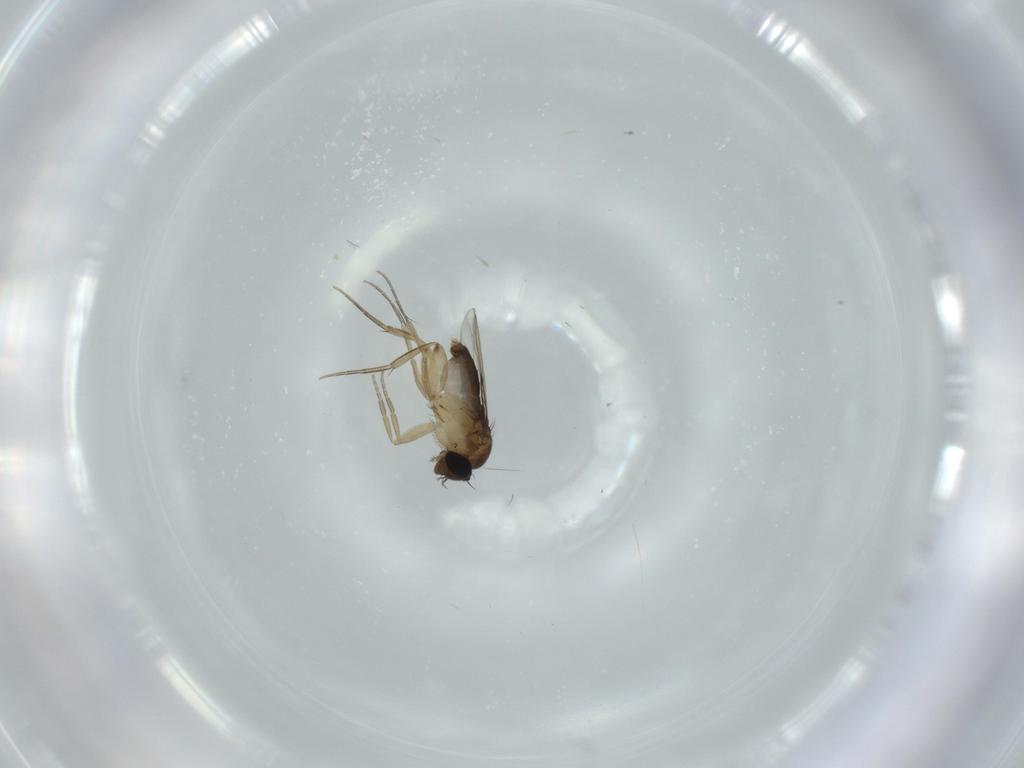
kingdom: Animalia
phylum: Arthropoda
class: Insecta
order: Diptera
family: Phoridae
